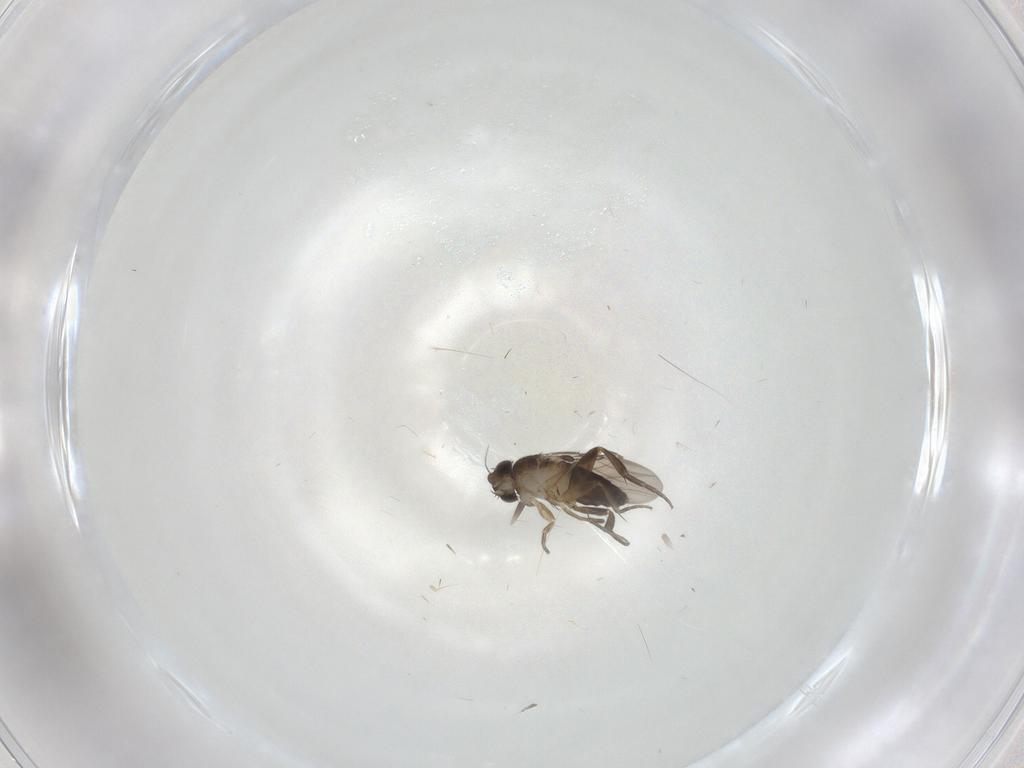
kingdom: Animalia
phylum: Arthropoda
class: Insecta
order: Diptera
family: Phoridae
